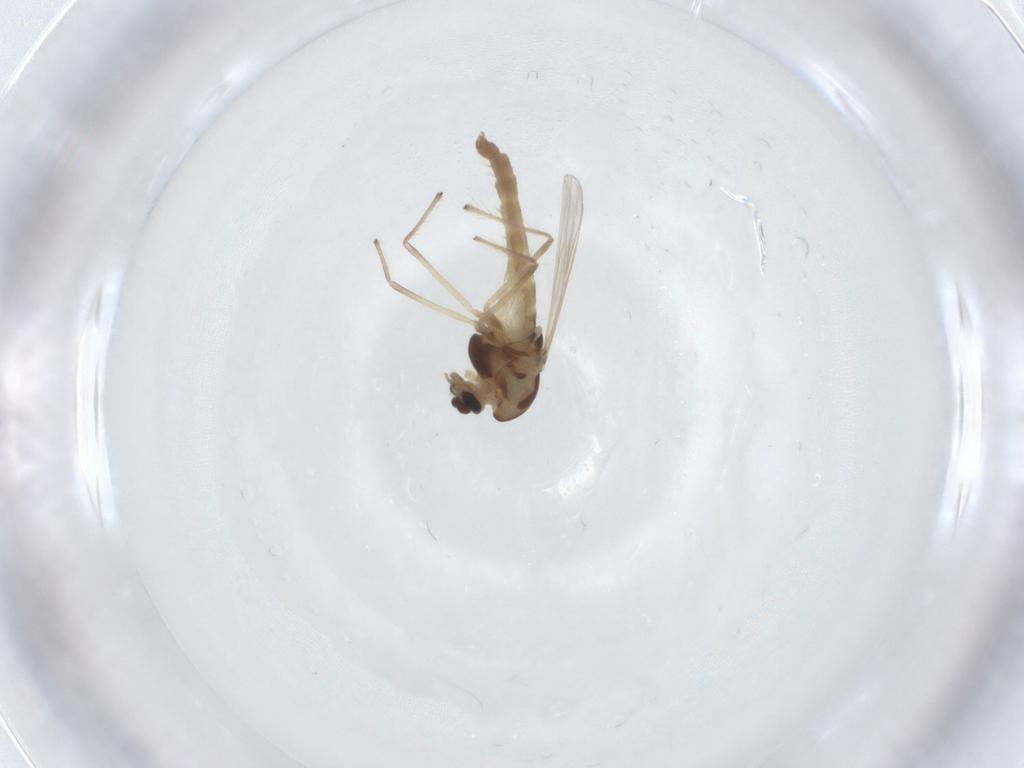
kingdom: Animalia
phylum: Arthropoda
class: Insecta
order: Diptera
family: Chironomidae
